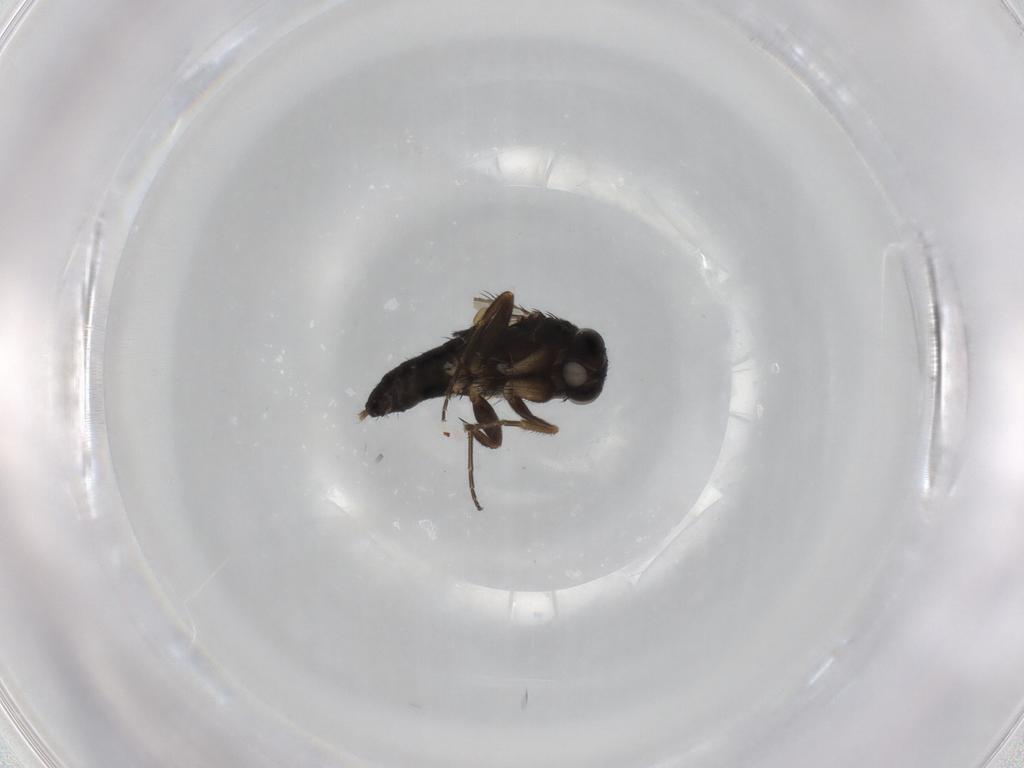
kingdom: Animalia
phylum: Arthropoda
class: Insecta
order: Diptera
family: Phoridae
